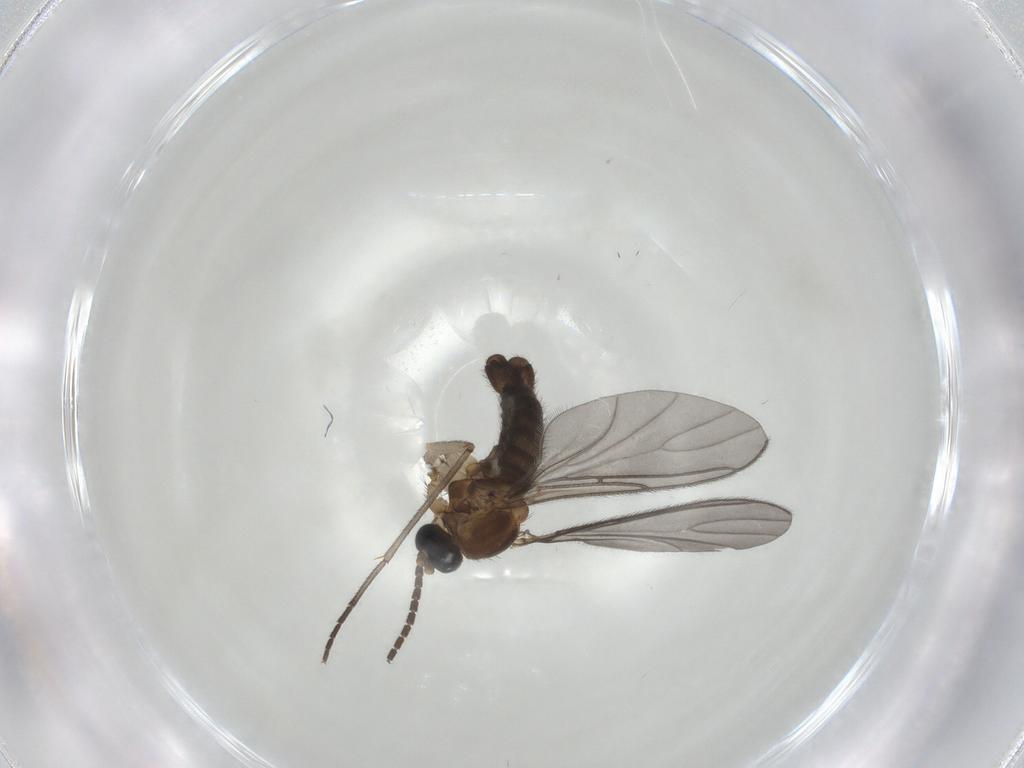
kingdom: Animalia
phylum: Arthropoda
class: Insecta
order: Diptera
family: Sciaridae
